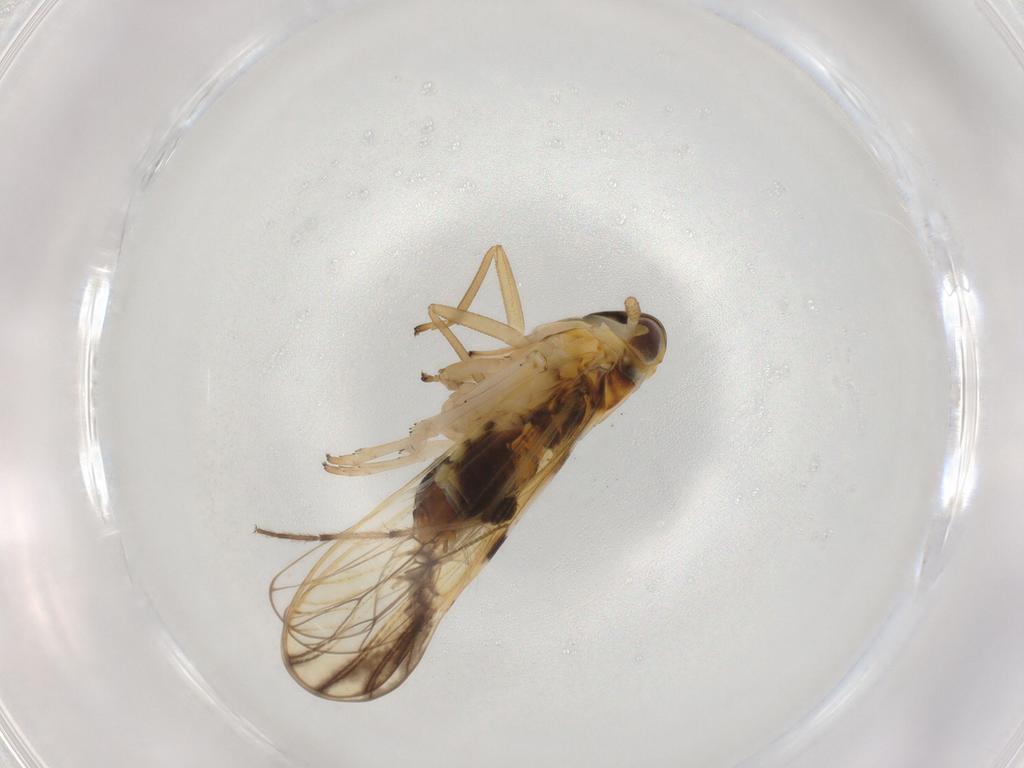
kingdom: Animalia
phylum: Arthropoda
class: Insecta
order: Hemiptera
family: Delphacidae
